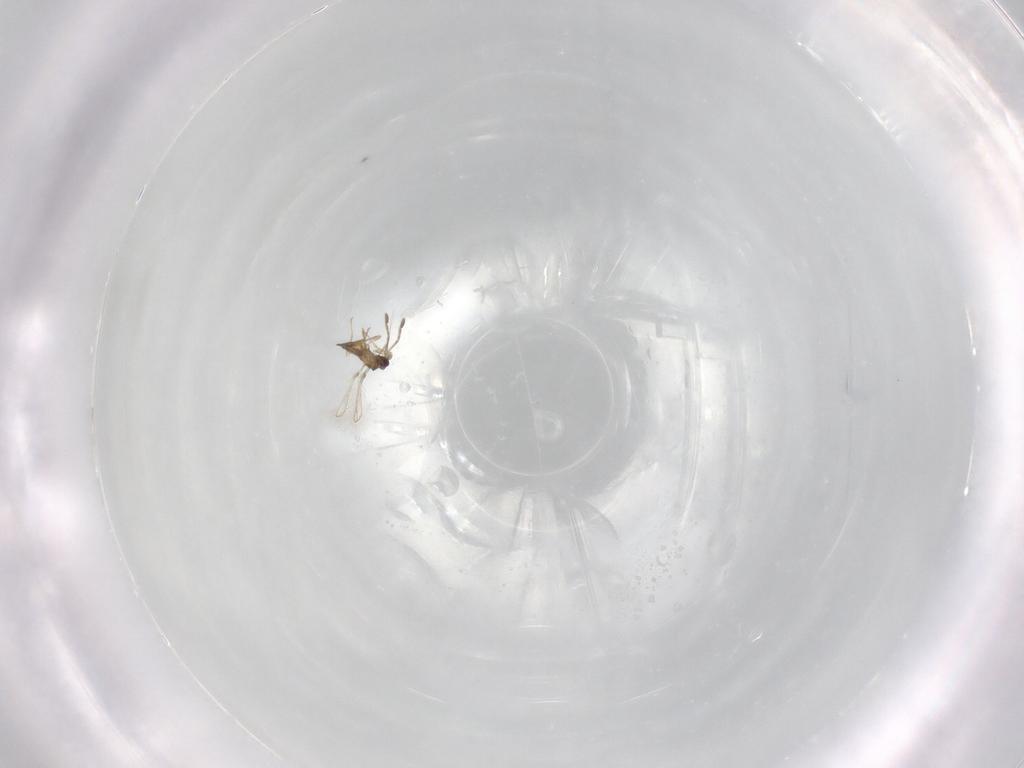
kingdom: Animalia
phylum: Arthropoda
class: Insecta
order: Hymenoptera
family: Mymaridae
